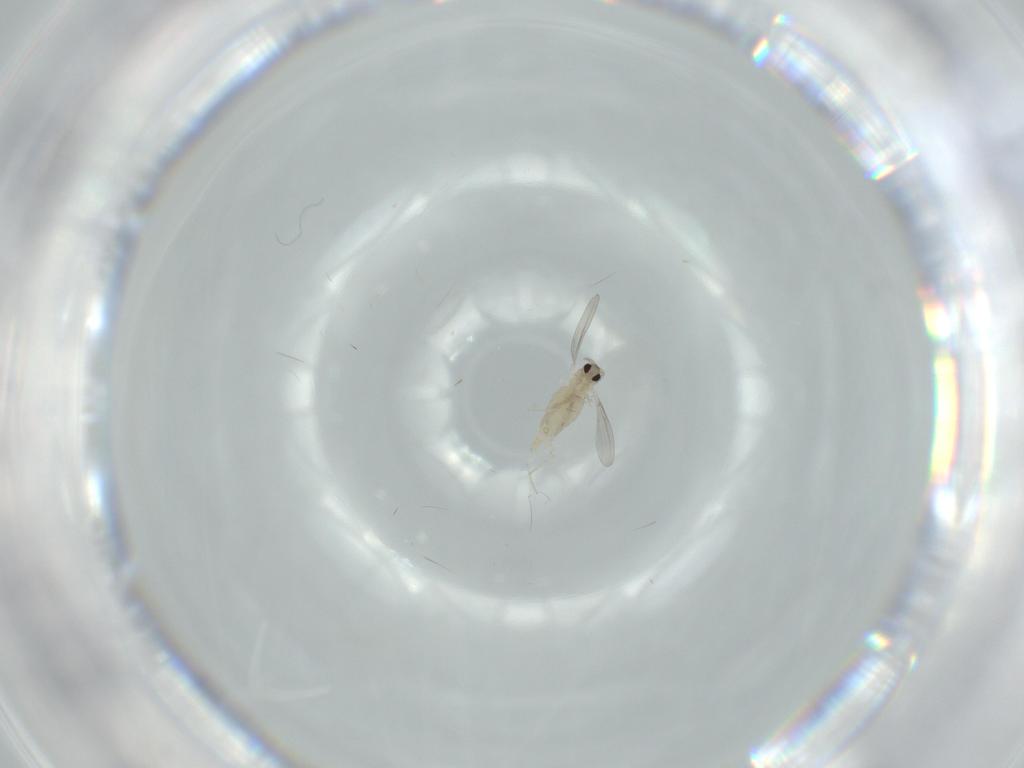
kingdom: Animalia
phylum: Arthropoda
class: Insecta
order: Diptera
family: Cecidomyiidae
